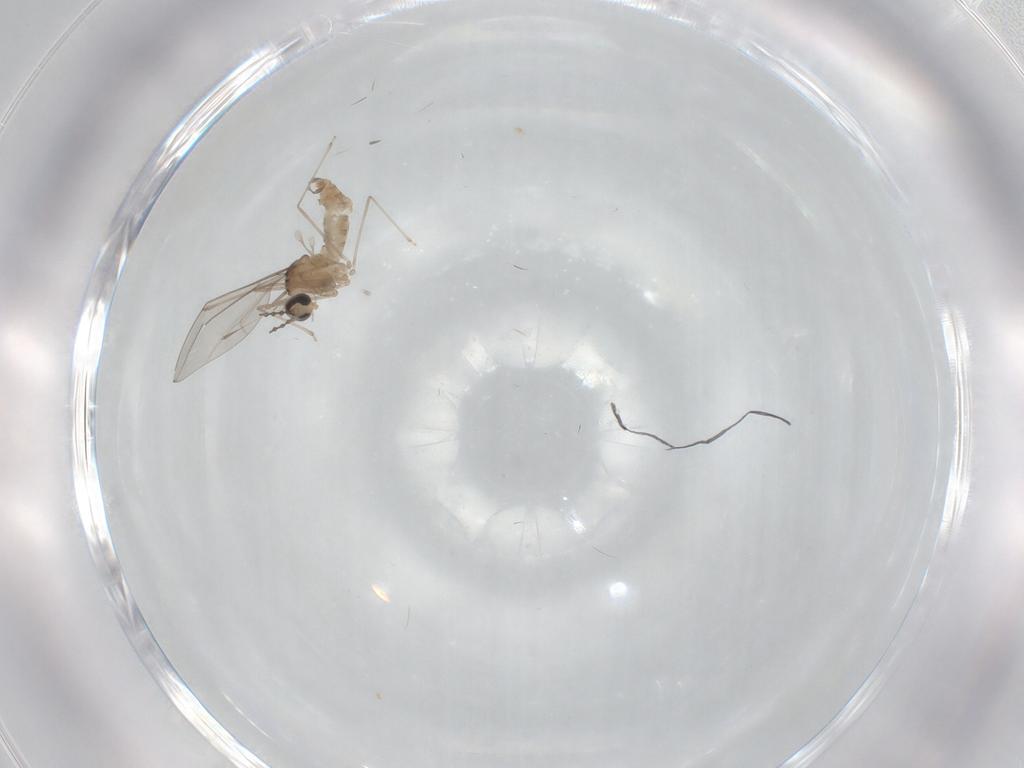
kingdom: Animalia
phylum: Arthropoda
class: Insecta
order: Diptera
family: Cecidomyiidae
